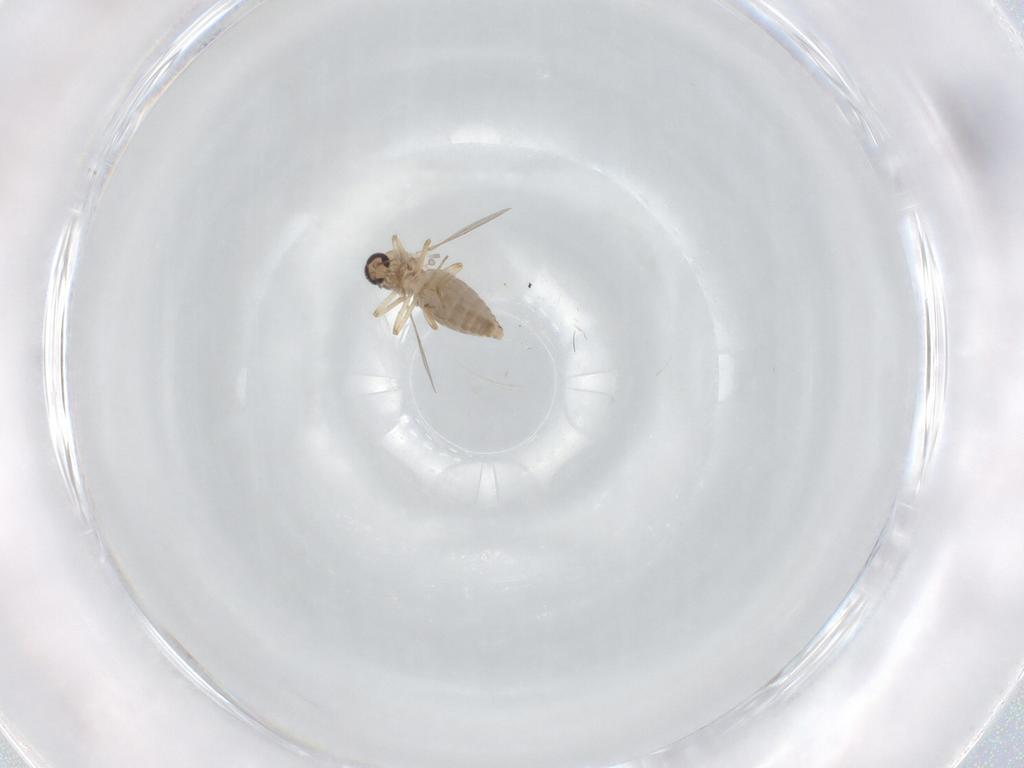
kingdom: Animalia
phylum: Arthropoda
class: Insecta
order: Diptera
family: Ceratopogonidae
